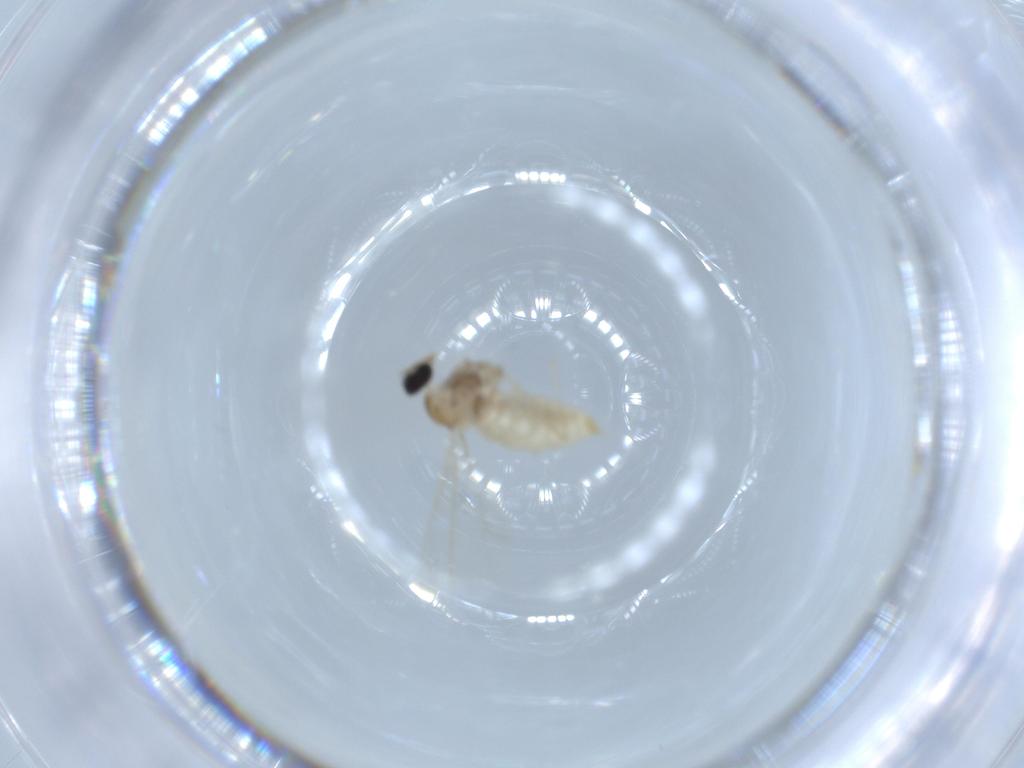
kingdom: Animalia
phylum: Arthropoda
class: Insecta
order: Diptera
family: Cecidomyiidae
